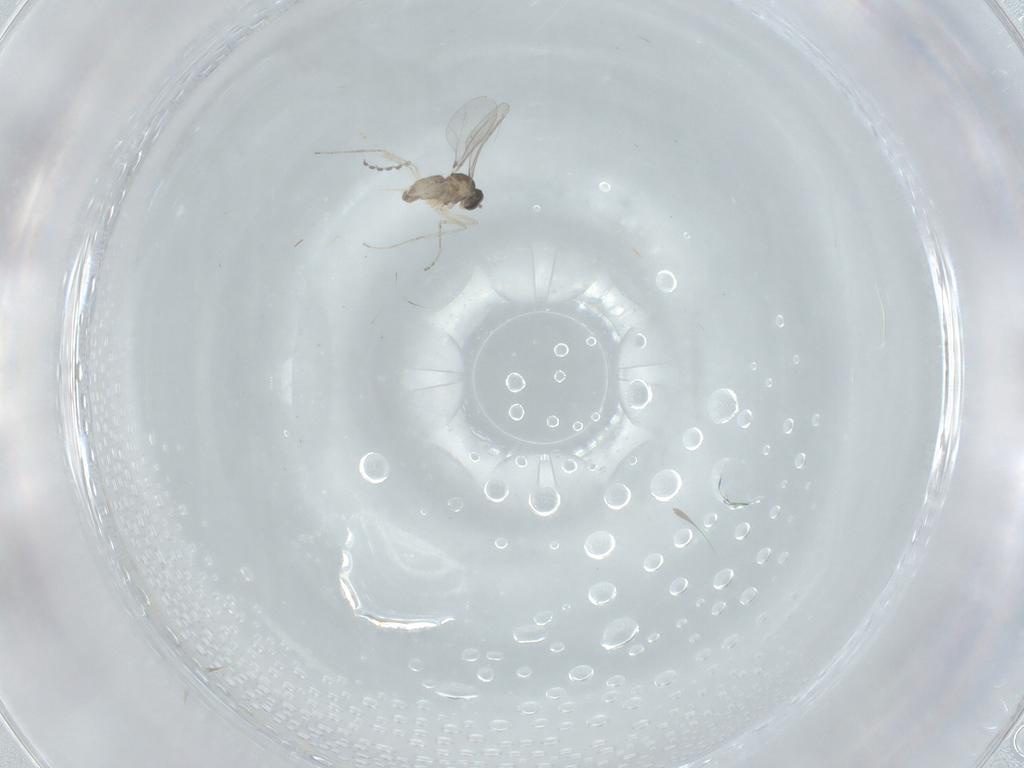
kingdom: Animalia
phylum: Arthropoda
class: Insecta
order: Diptera
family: Cecidomyiidae
